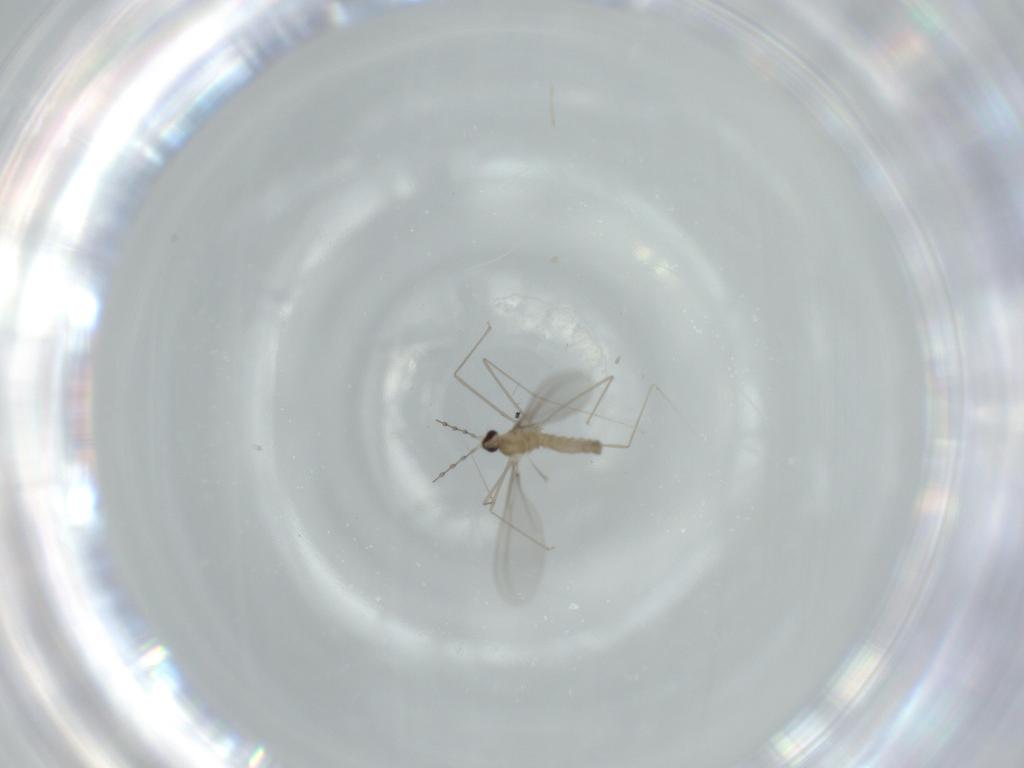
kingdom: Animalia
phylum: Arthropoda
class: Insecta
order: Diptera
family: Cecidomyiidae
